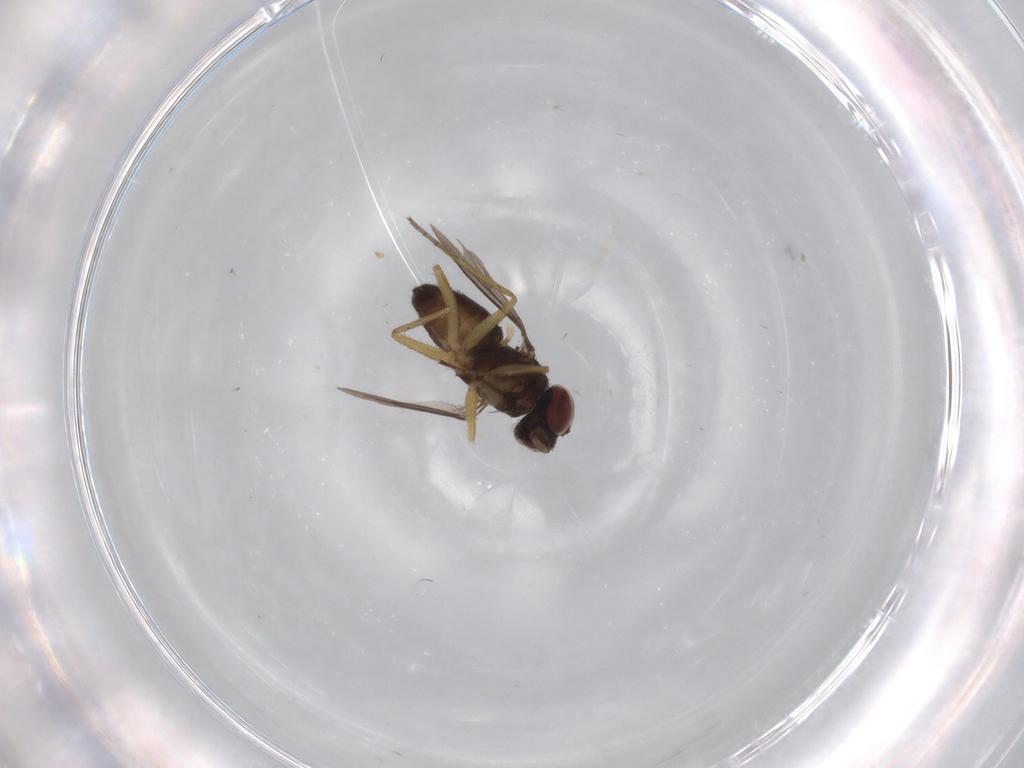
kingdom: Animalia
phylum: Arthropoda
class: Insecta
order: Diptera
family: Dolichopodidae
